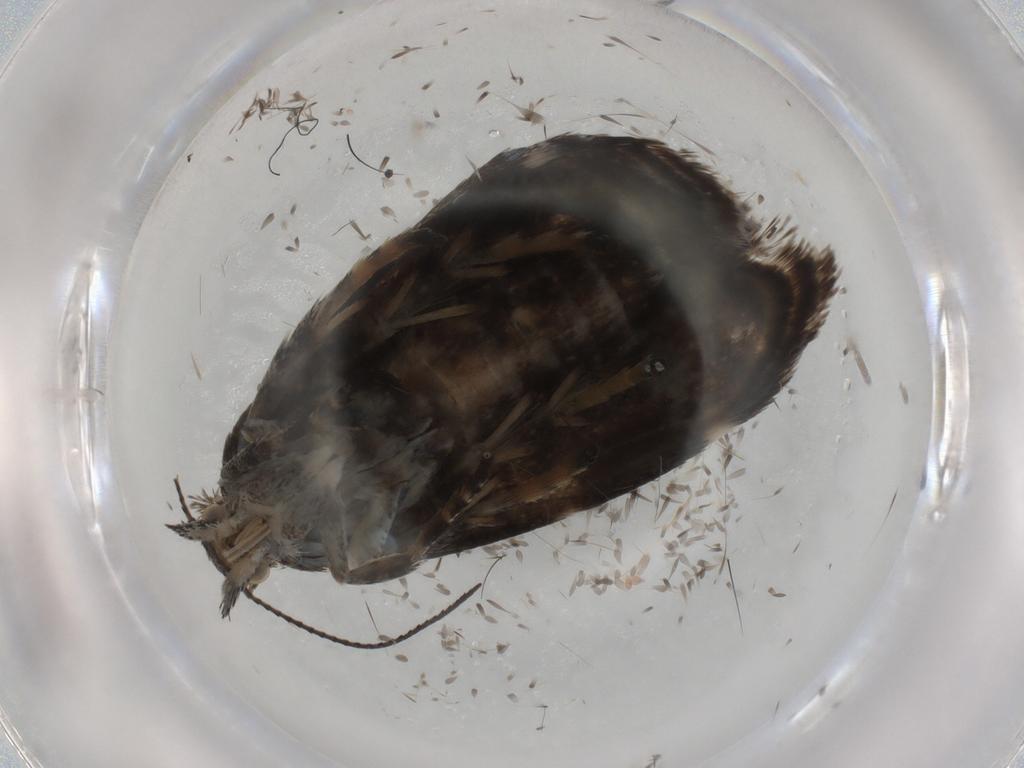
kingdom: Animalia
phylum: Arthropoda
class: Insecta
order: Lepidoptera
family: Choreutidae
